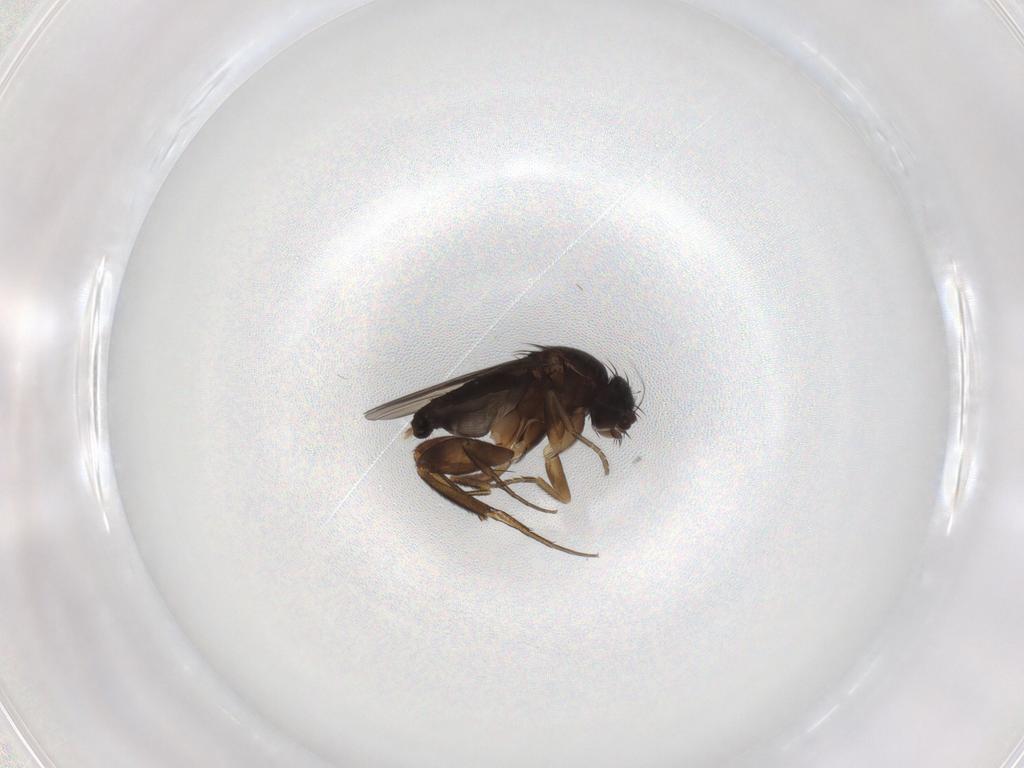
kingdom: Animalia
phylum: Arthropoda
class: Insecta
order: Diptera
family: Phoridae
